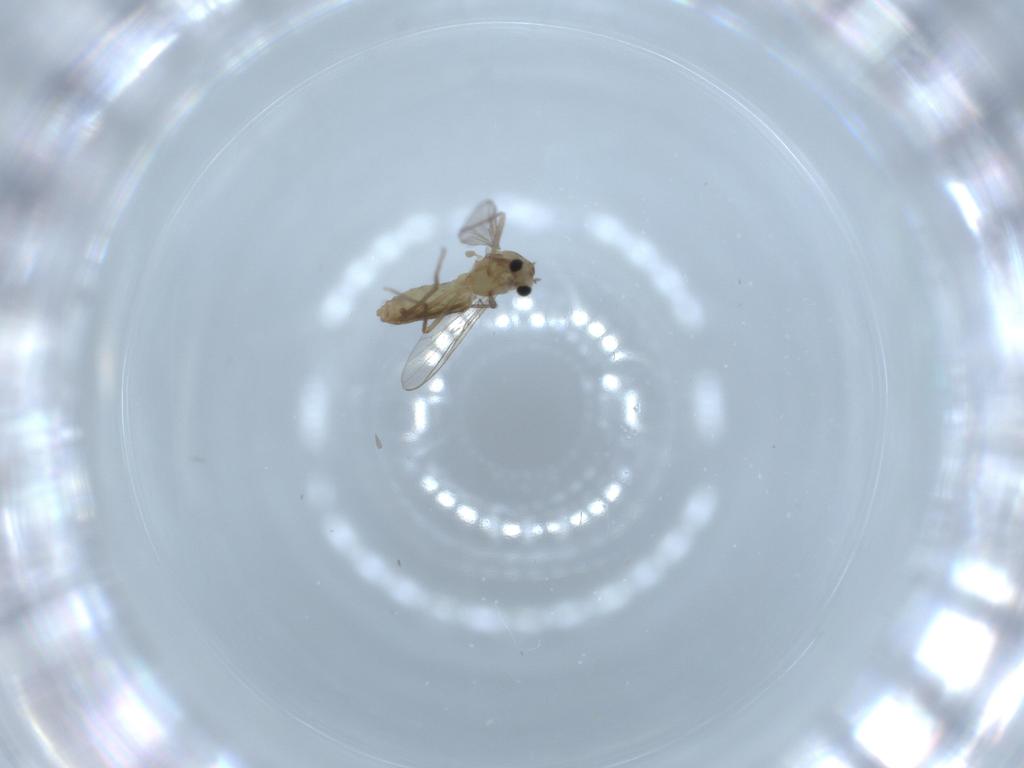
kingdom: Animalia
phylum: Arthropoda
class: Insecta
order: Diptera
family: Chironomidae
